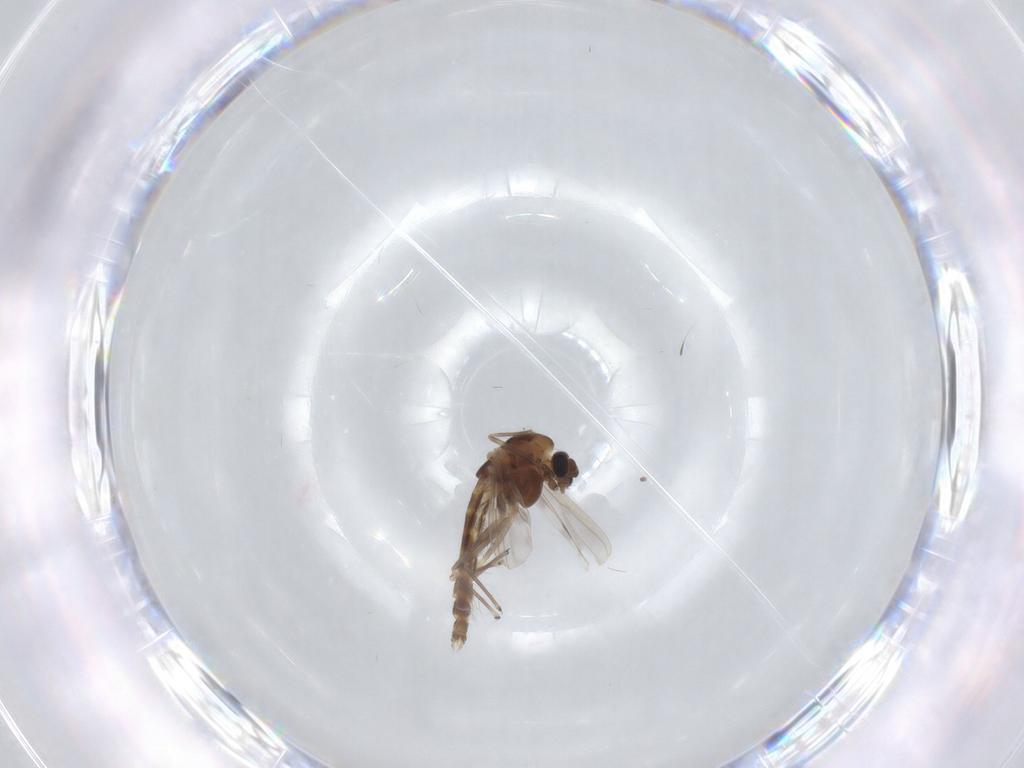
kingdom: Animalia
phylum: Arthropoda
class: Insecta
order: Diptera
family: Chironomidae
